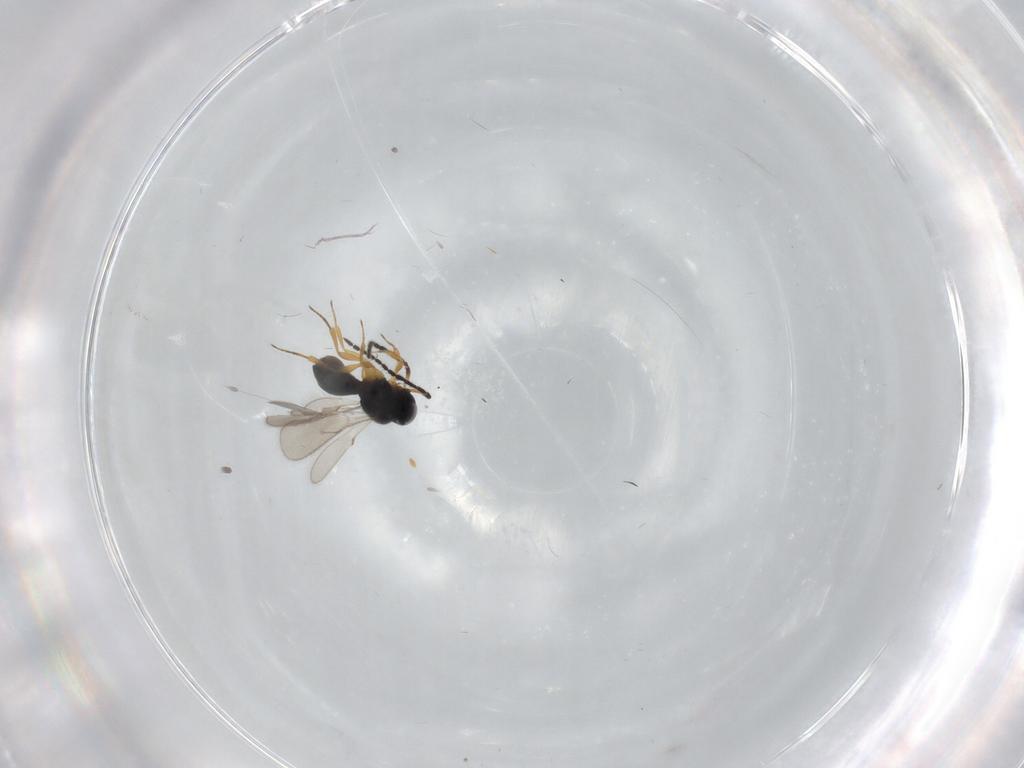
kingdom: Animalia
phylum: Arthropoda
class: Insecta
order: Hymenoptera
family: Scelionidae
